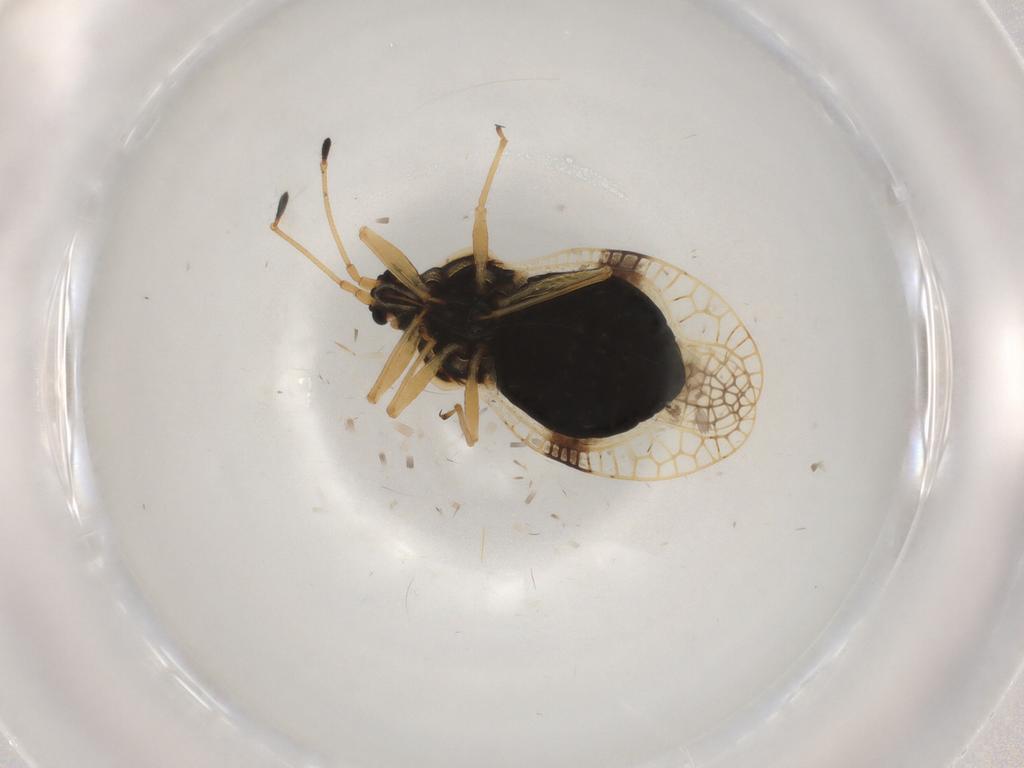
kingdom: Animalia
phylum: Arthropoda
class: Insecta
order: Hemiptera
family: Tingidae
